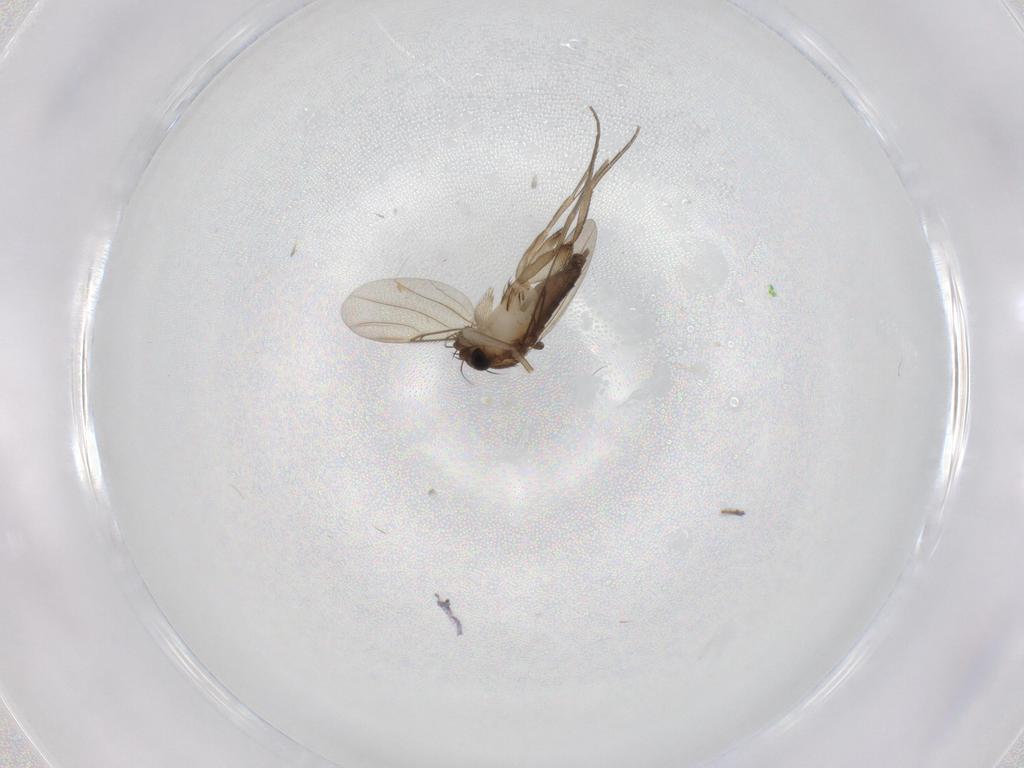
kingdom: Animalia
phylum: Arthropoda
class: Insecta
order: Diptera
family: Phoridae
